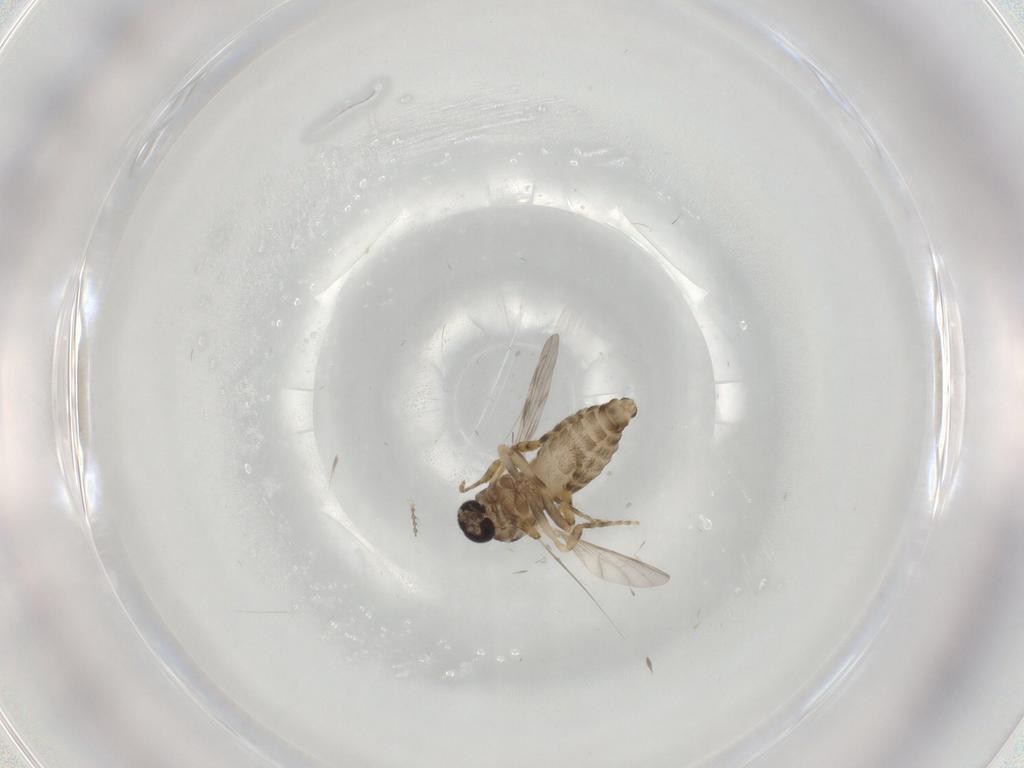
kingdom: Animalia
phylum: Arthropoda
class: Insecta
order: Diptera
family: Ceratopogonidae
